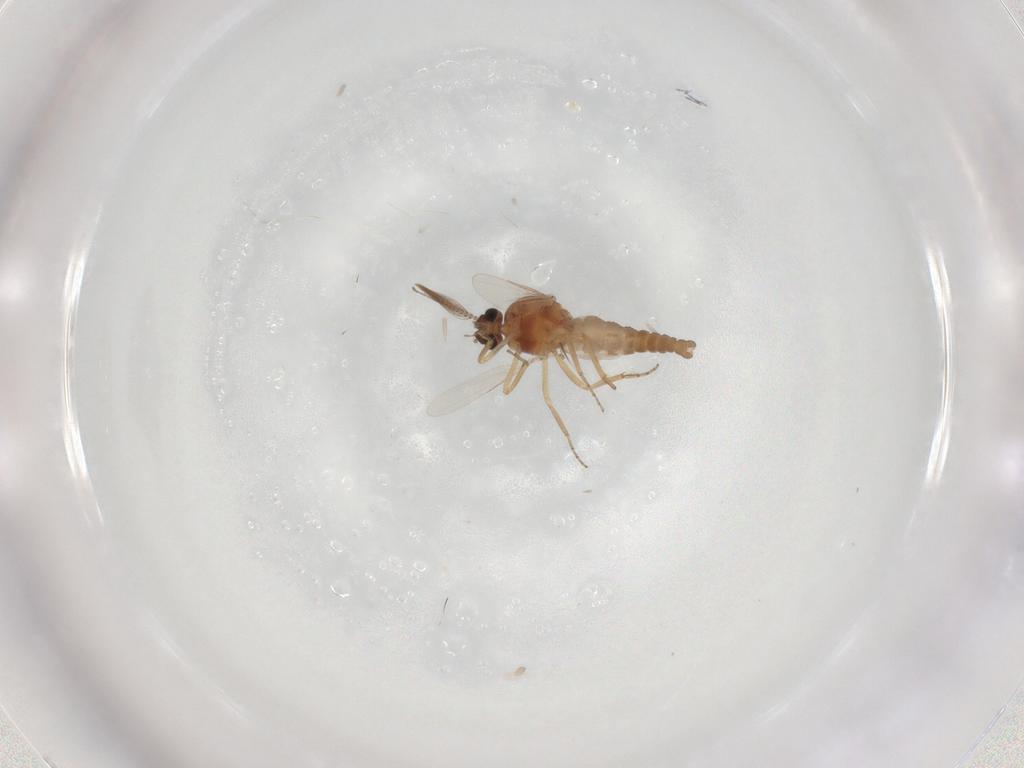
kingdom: Animalia
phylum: Arthropoda
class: Insecta
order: Diptera
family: Ceratopogonidae
